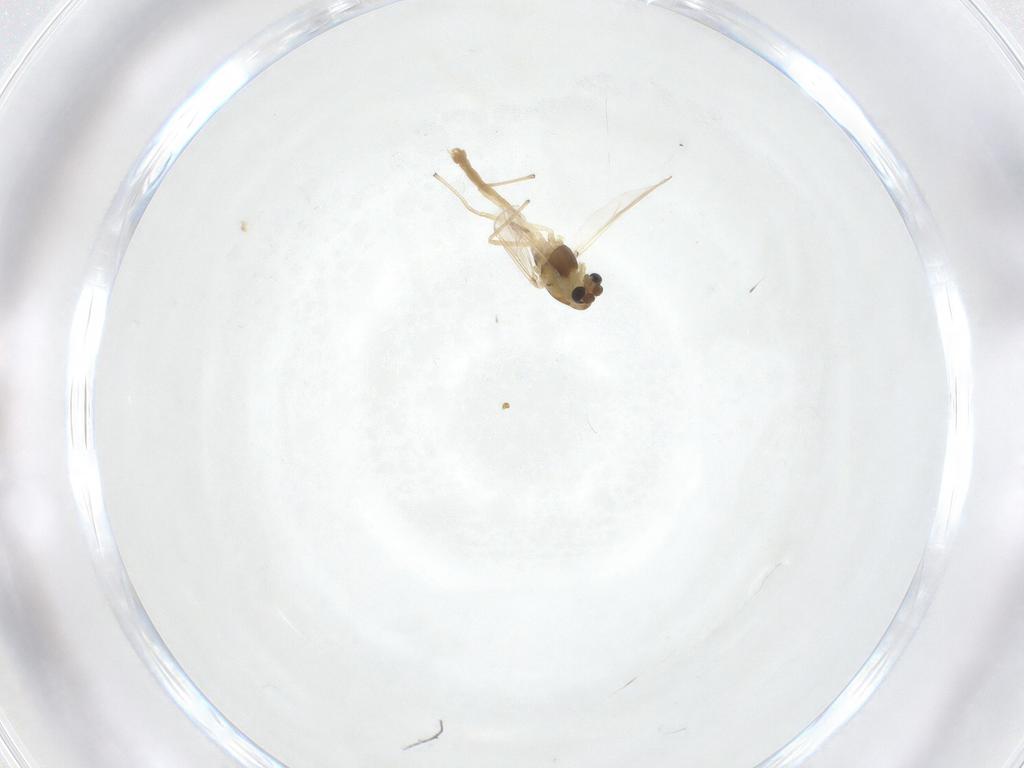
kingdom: Animalia
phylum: Arthropoda
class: Insecta
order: Diptera
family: Chironomidae
